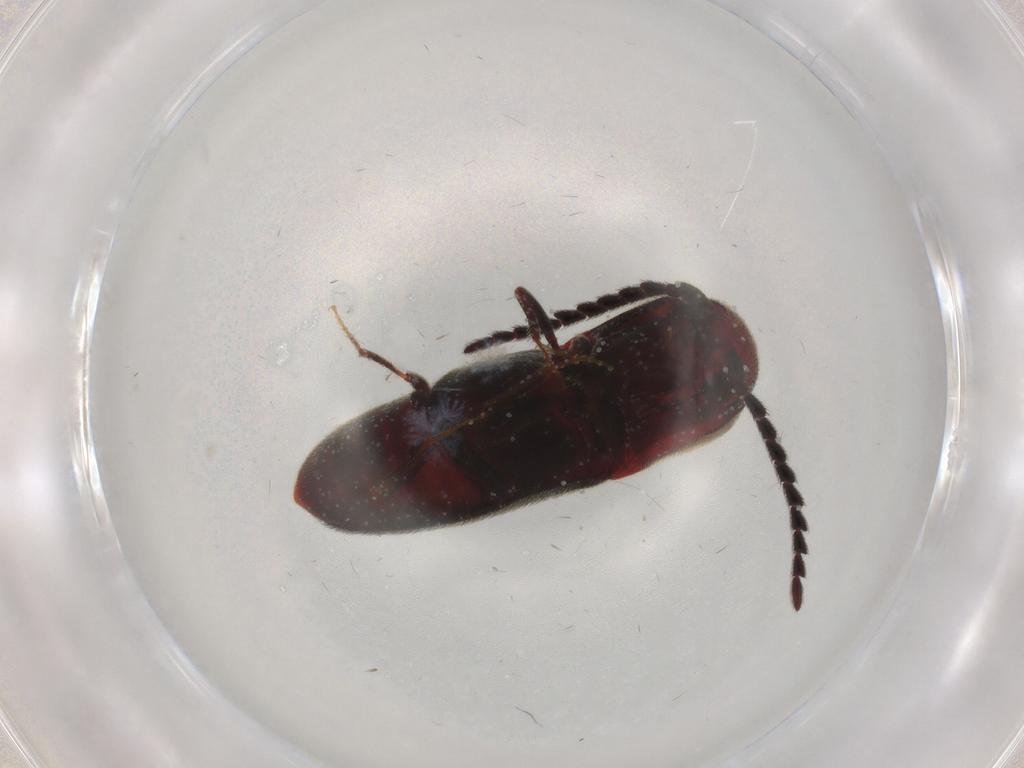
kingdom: Animalia
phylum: Arthropoda
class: Insecta
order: Coleoptera
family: Eucnemidae
